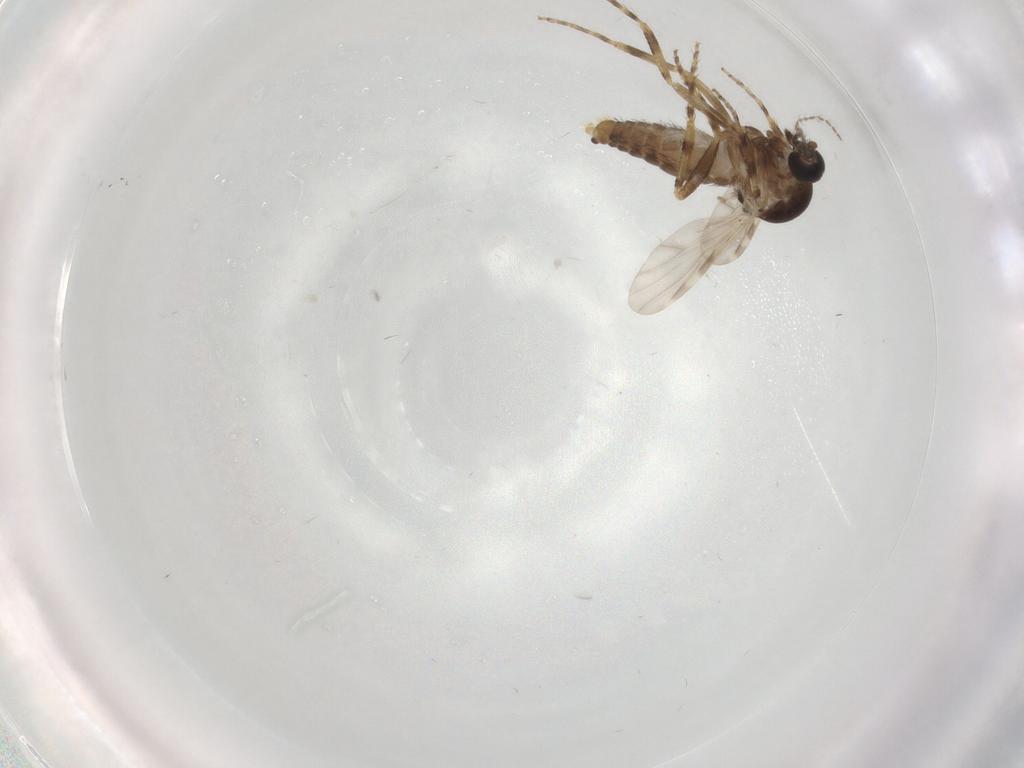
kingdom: Animalia
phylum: Arthropoda
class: Insecta
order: Diptera
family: Ceratopogonidae
